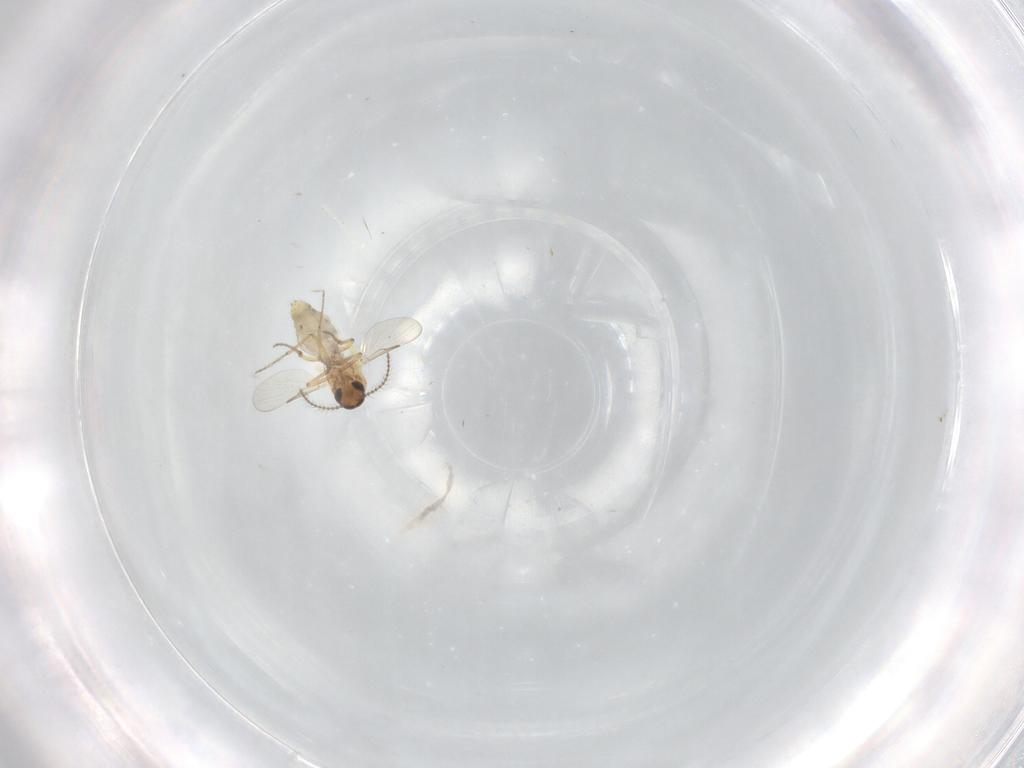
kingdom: Animalia
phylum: Arthropoda
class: Insecta
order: Diptera
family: Ceratopogonidae
